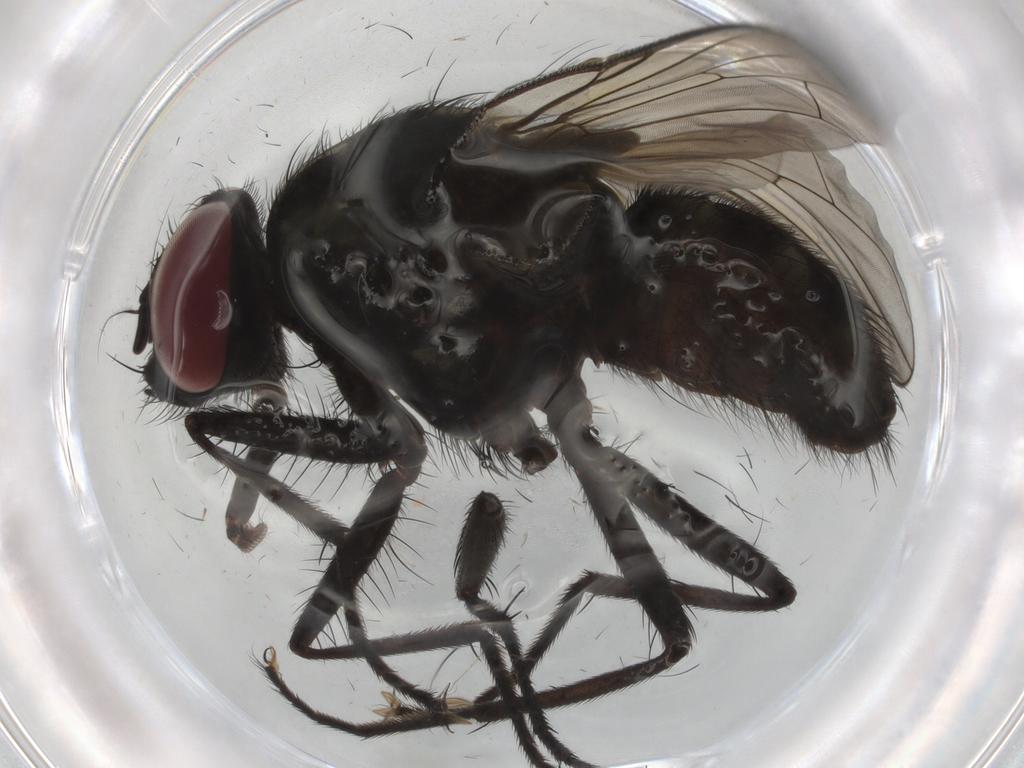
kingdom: Animalia
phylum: Arthropoda
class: Insecta
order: Diptera
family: Muscidae
